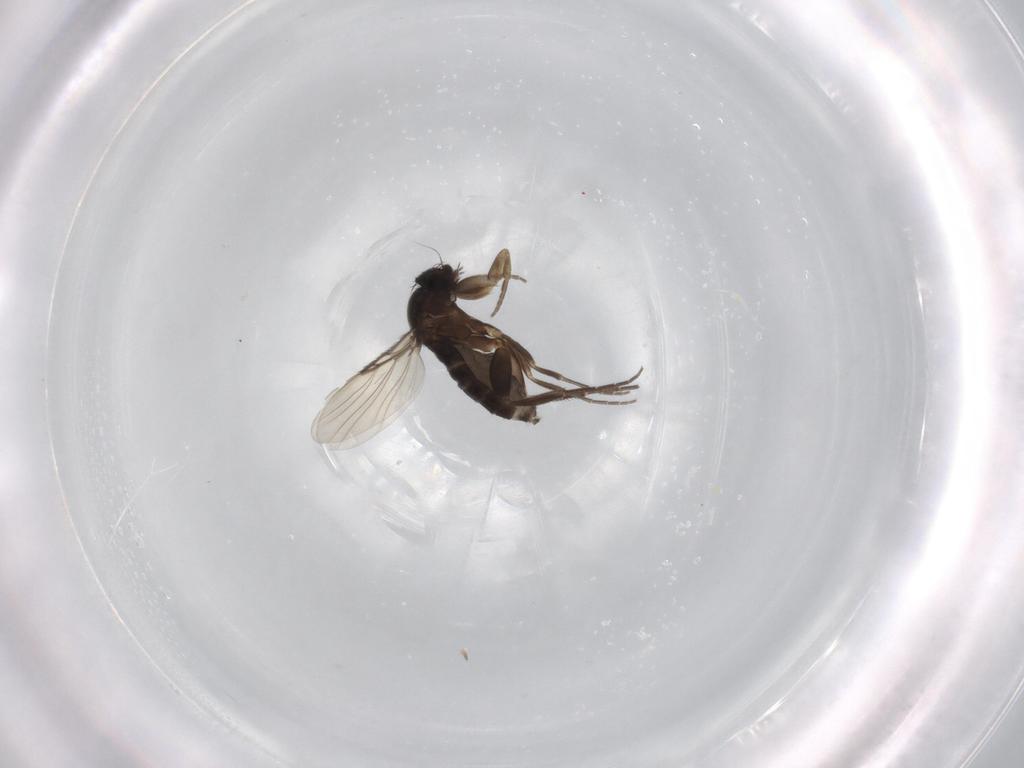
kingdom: Animalia
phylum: Arthropoda
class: Insecta
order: Diptera
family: Phoridae
